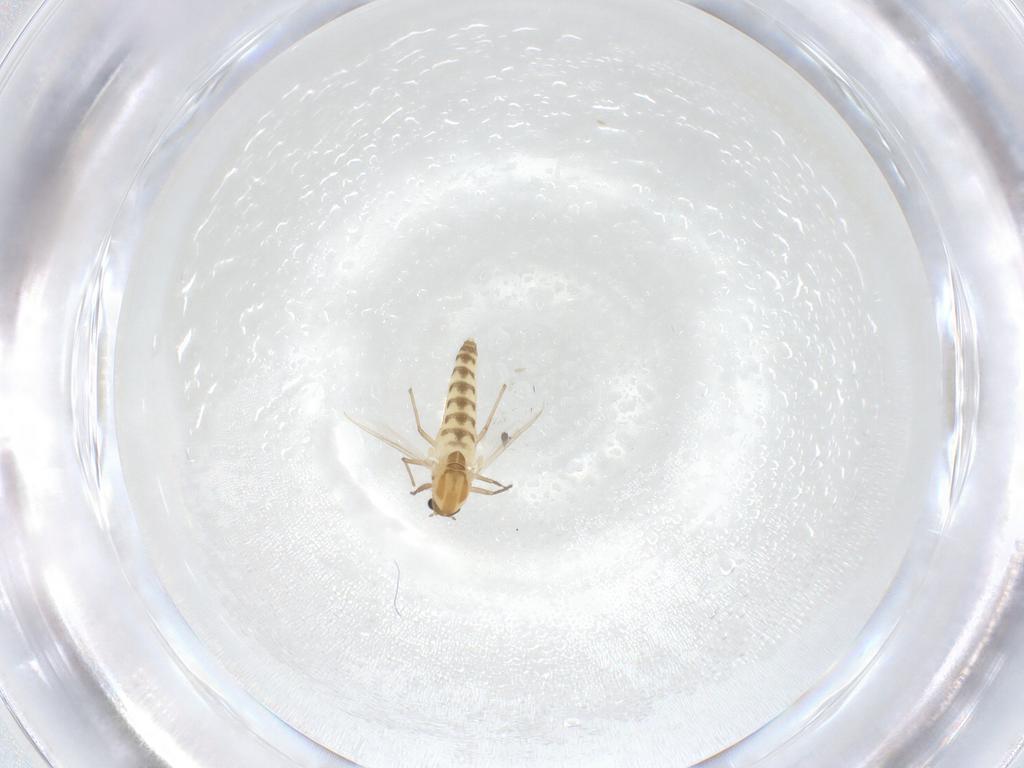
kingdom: Animalia
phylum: Arthropoda
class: Insecta
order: Diptera
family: Chironomidae
